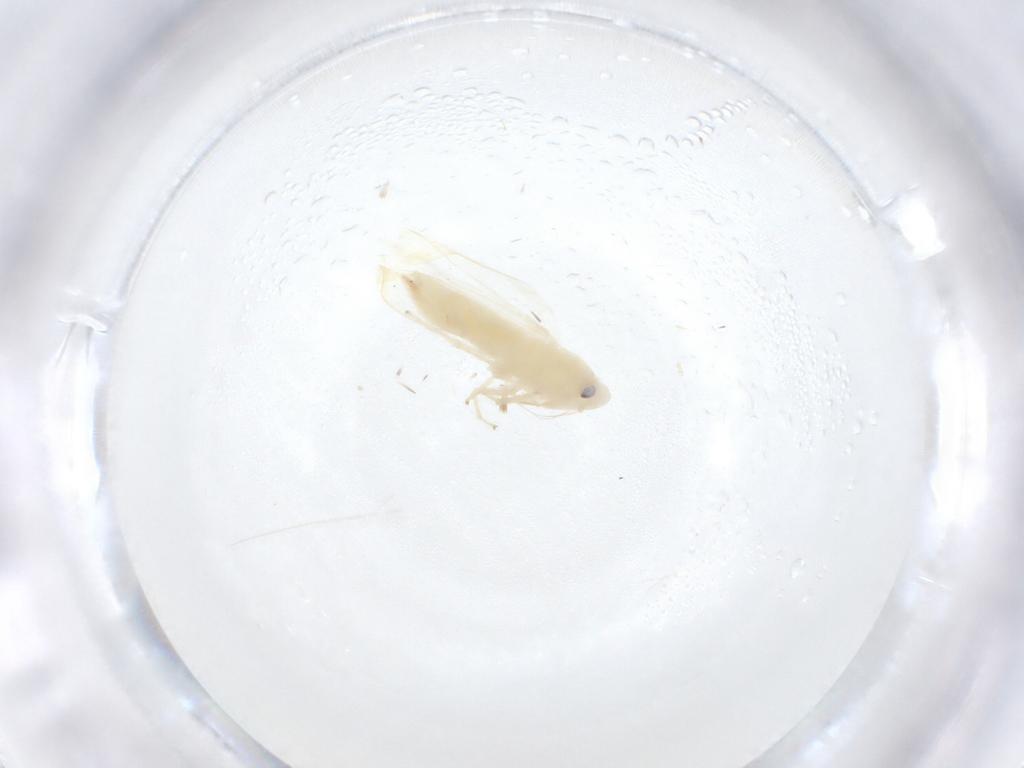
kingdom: Animalia
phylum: Arthropoda
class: Insecta
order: Hemiptera
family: Cicadellidae
